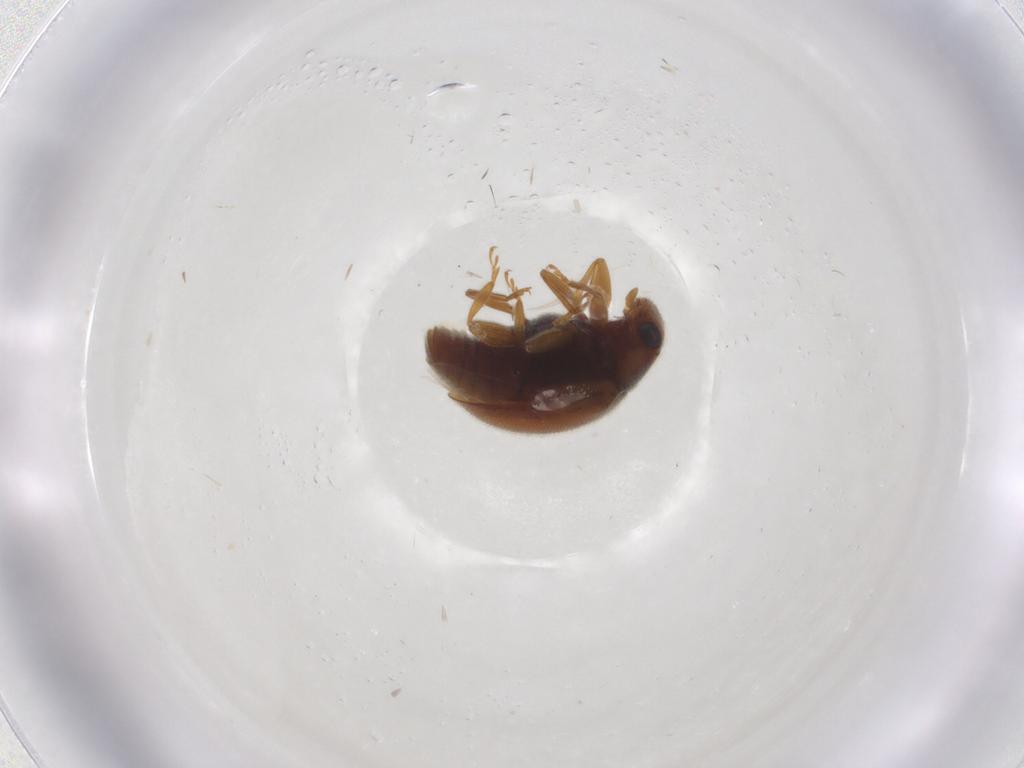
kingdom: Animalia
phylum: Arthropoda
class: Insecta
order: Coleoptera
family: Coccinellidae
